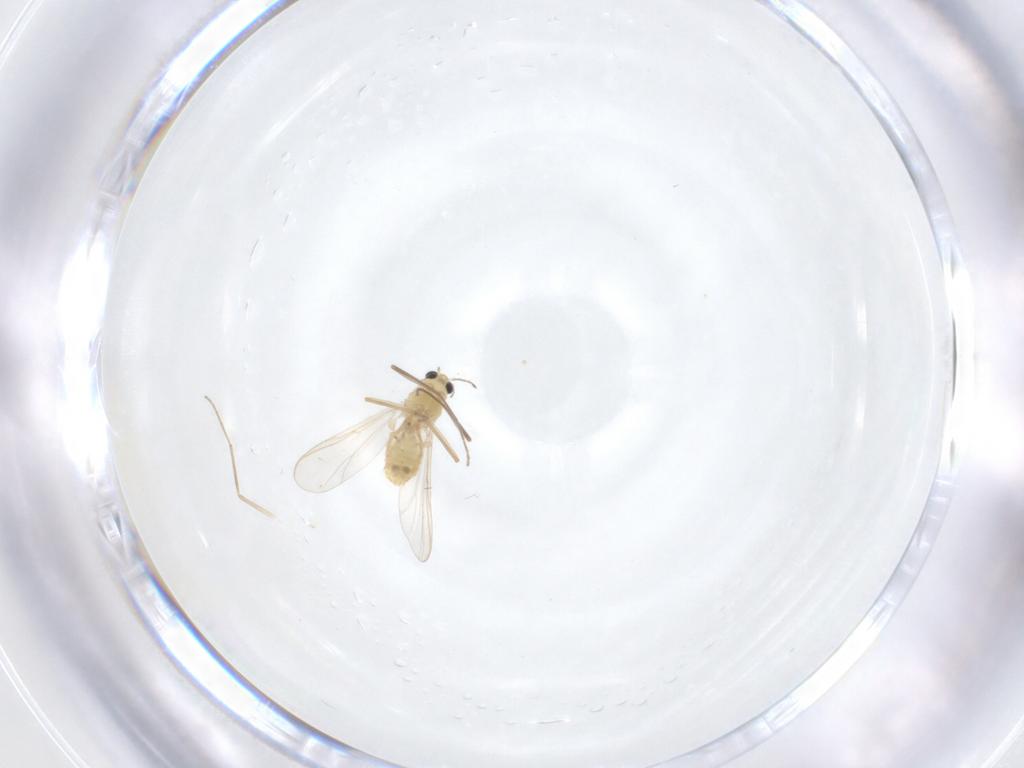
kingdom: Animalia
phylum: Arthropoda
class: Insecta
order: Diptera
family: Chironomidae
